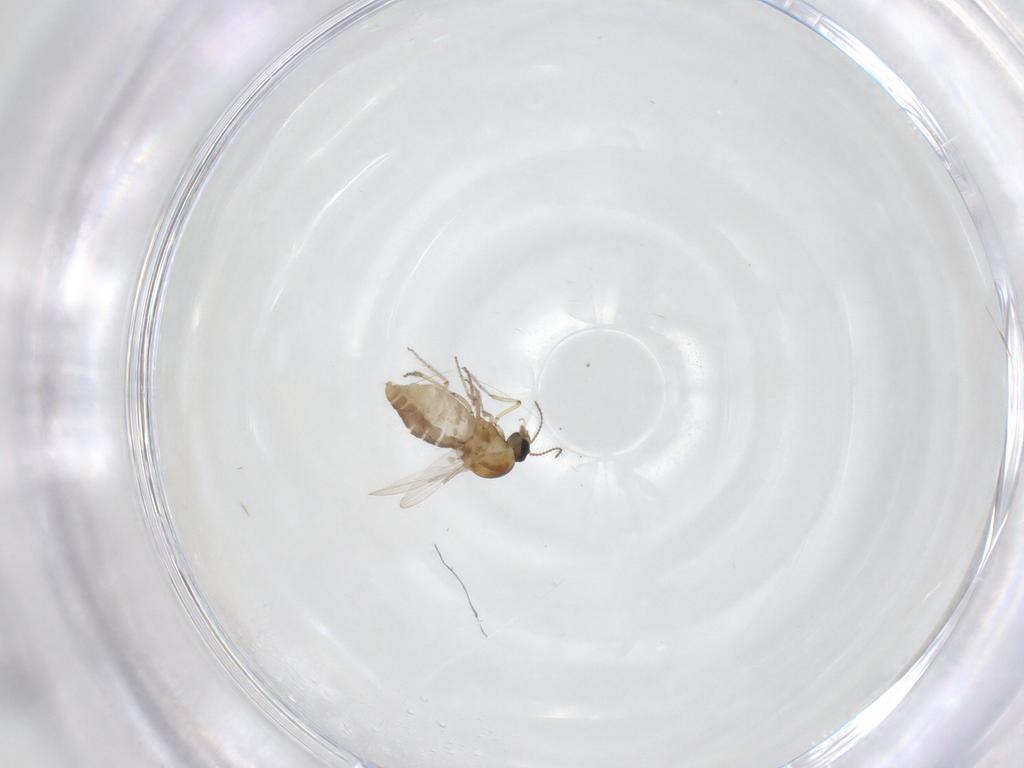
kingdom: Animalia
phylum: Arthropoda
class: Insecta
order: Diptera
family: Ceratopogonidae
